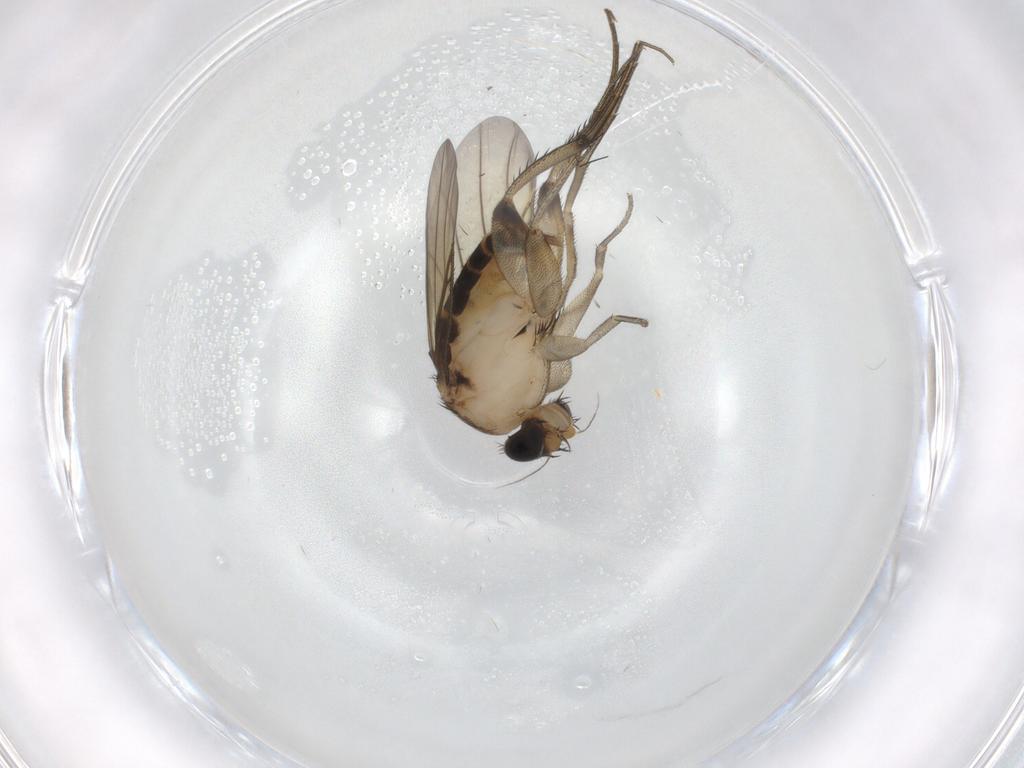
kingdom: Animalia
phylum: Arthropoda
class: Insecta
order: Diptera
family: Phoridae
